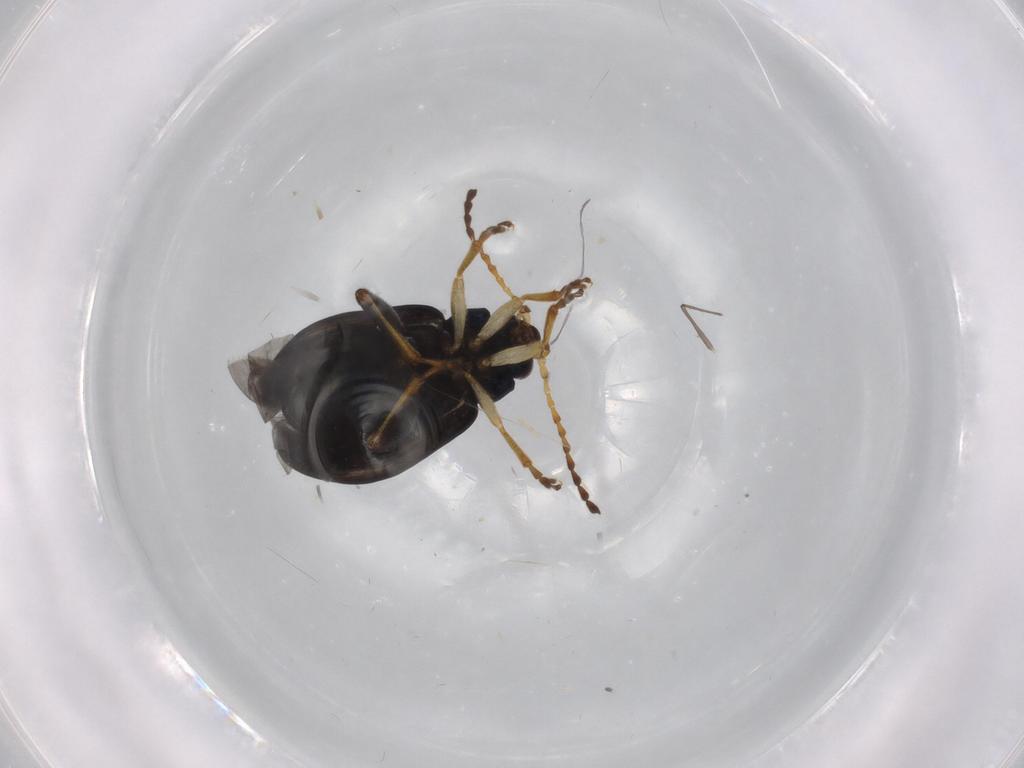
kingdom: Animalia
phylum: Arthropoda
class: Insecta
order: Coleoptera
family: Chrysomelidae
